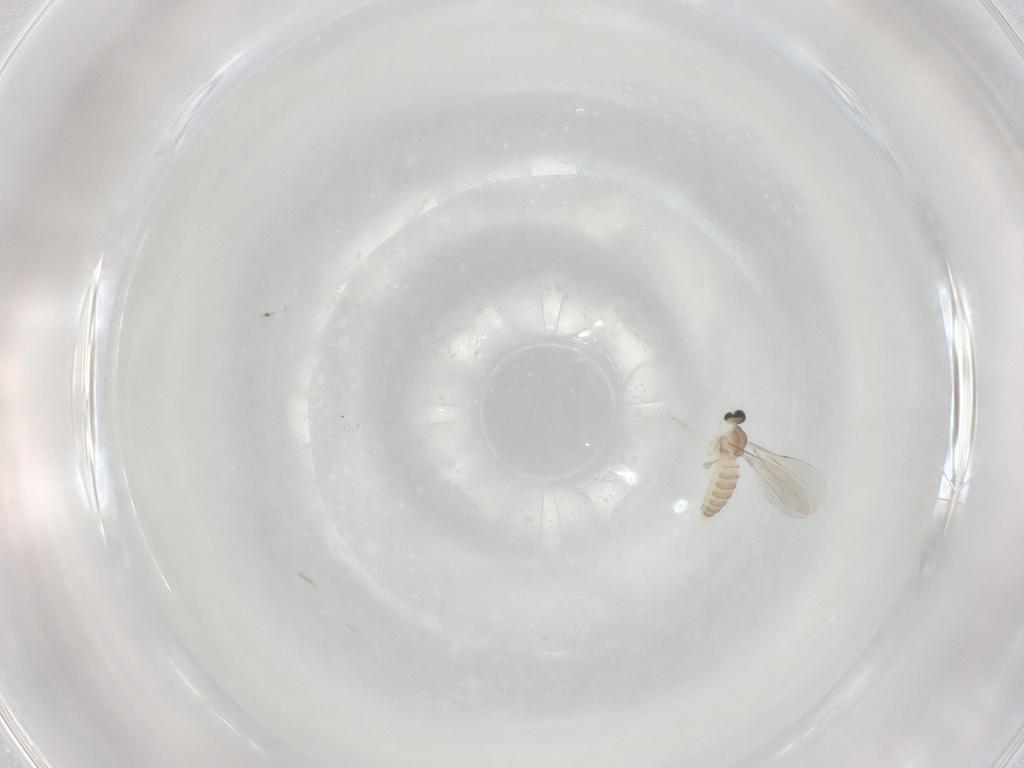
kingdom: Animalia
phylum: Arthropoda
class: Insecta
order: Diptera
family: Cecidomyiidae
